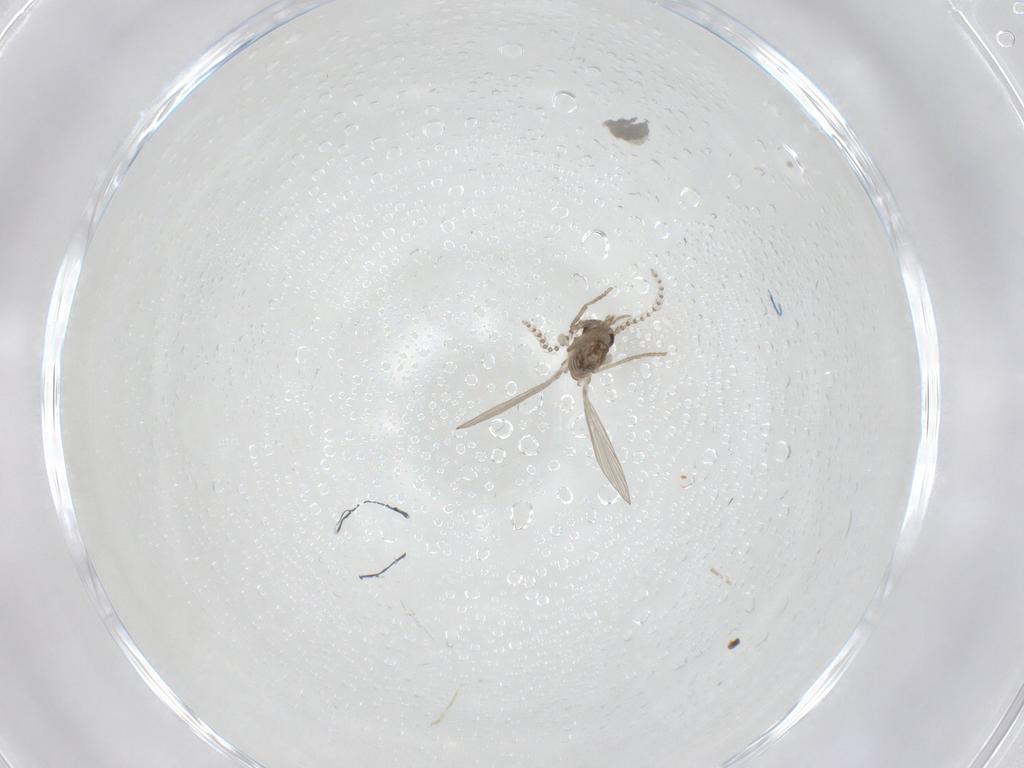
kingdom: Animalia
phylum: Arthropoda
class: Insecta
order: Diptera
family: Psychodidae
